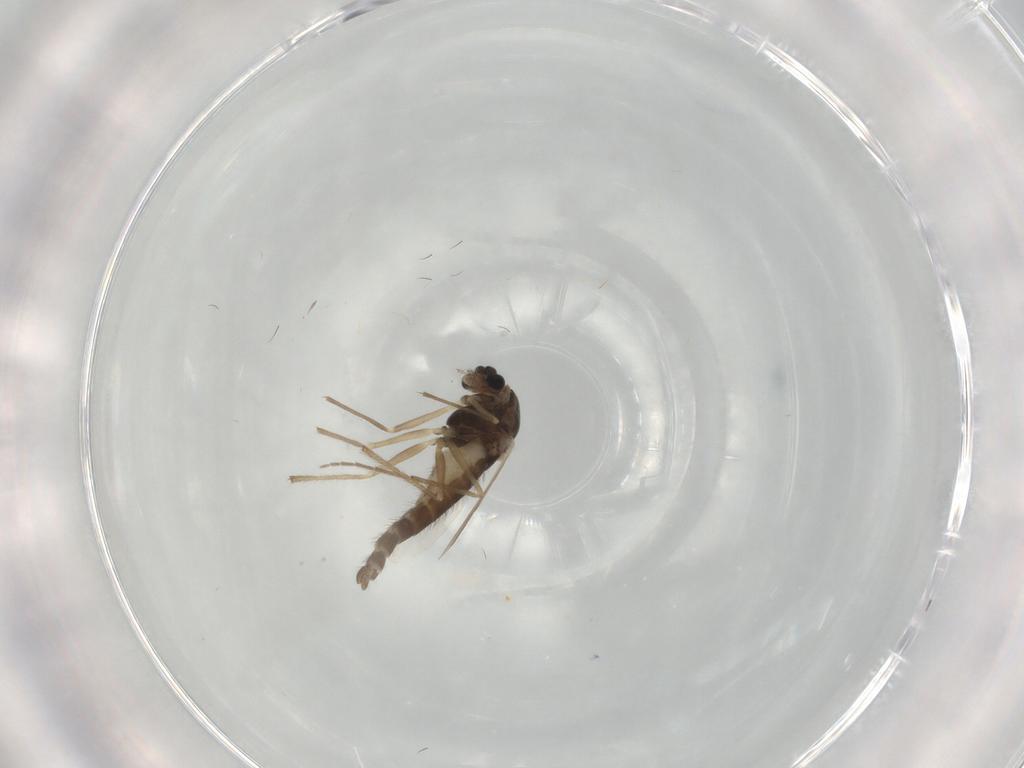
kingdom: Animalia
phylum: Arthropoda
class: Insecta
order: Diptera
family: Chironomidae
